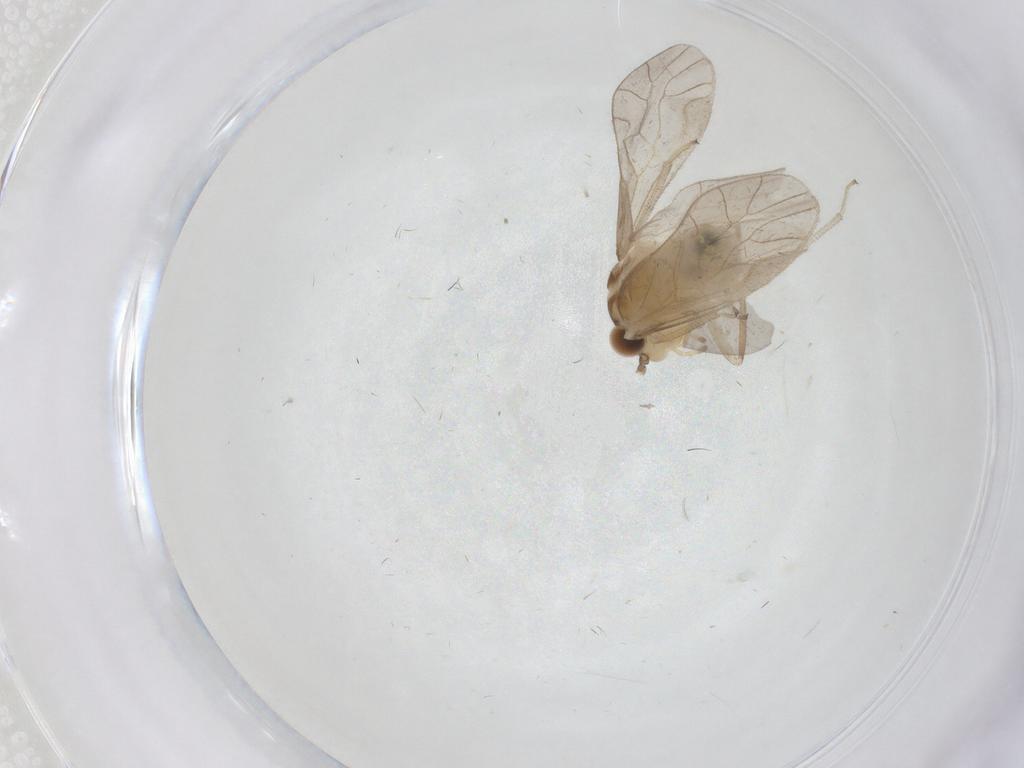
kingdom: Animalia
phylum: Arthropoda
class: Insecta
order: Psocodea
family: Caeciliusidae
